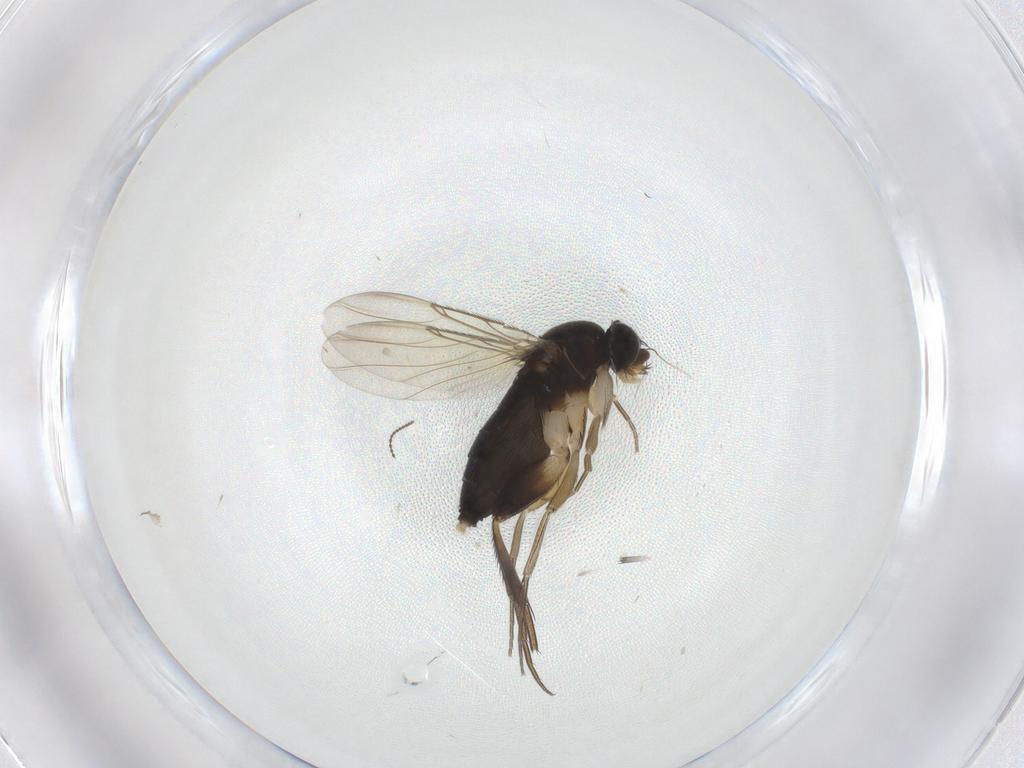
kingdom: Animalia
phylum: Arthropoda
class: Insecta
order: Diptera
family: Phoridae
